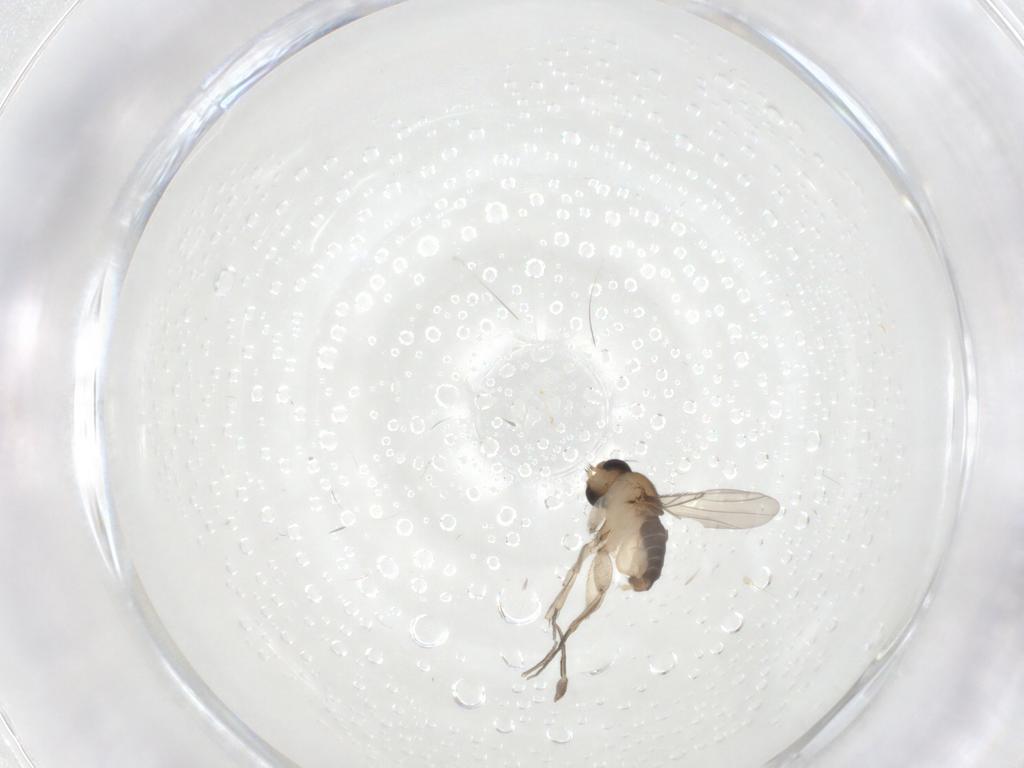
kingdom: Animalia
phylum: Arthropoda
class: Insecta
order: Diptera
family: Phoridae
